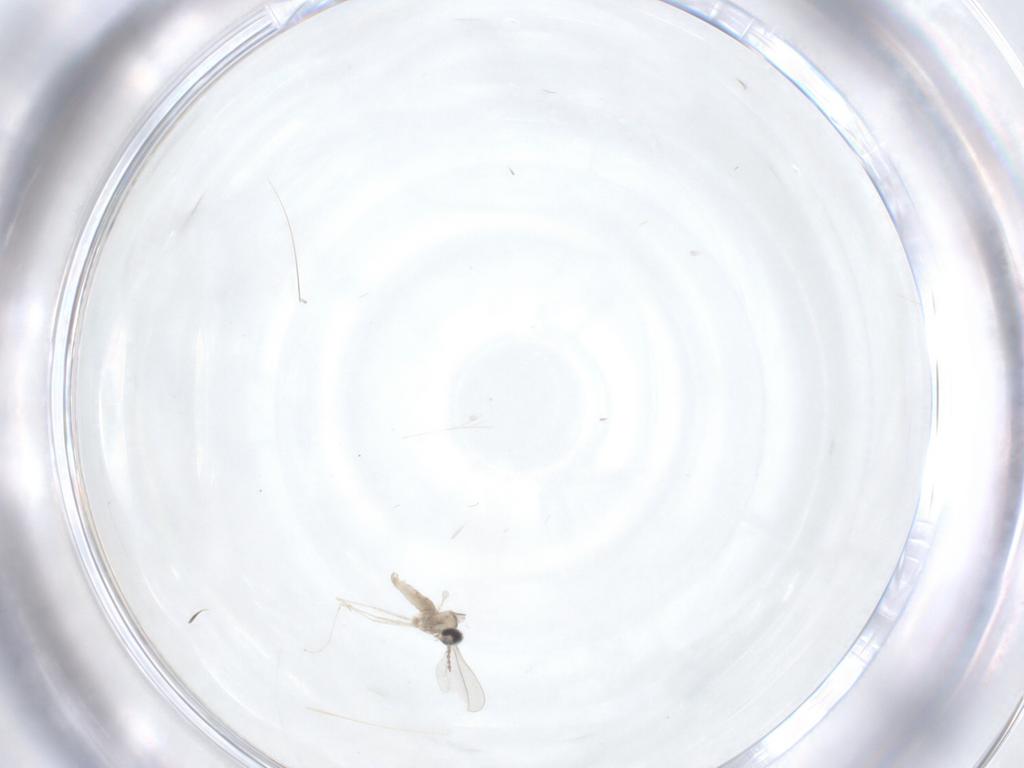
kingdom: Animalia
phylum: Arthropoda
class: Insecta
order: Diptera
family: Cecidomyiidae
